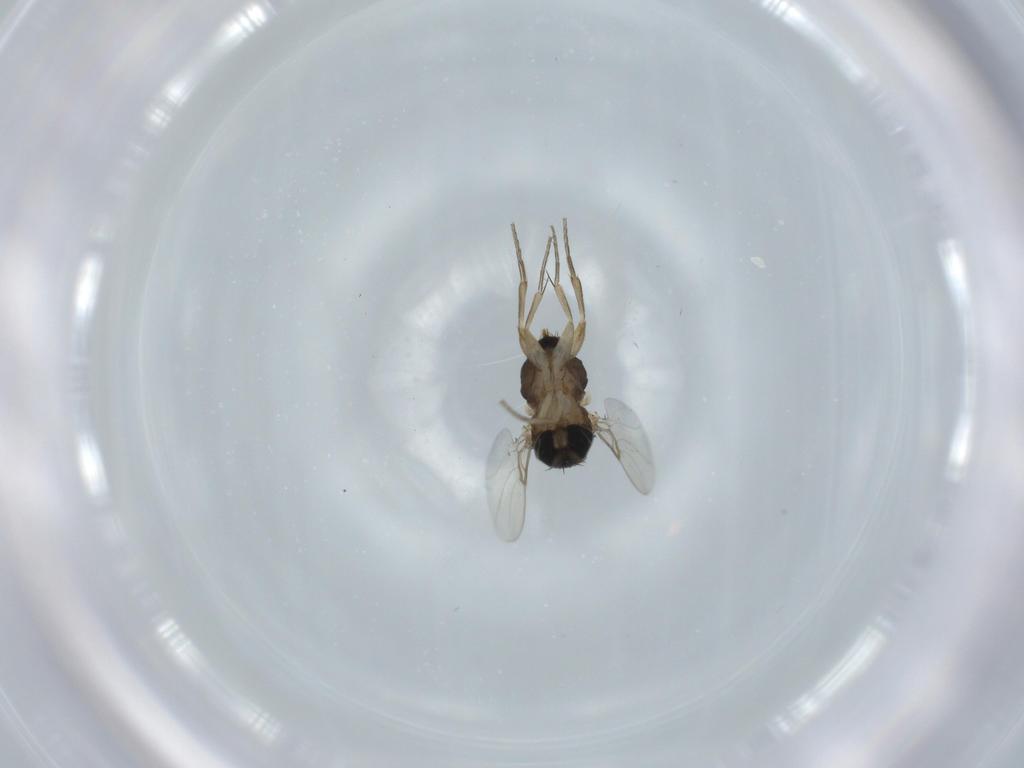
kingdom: Animalia
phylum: Arthropoda
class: Insecta
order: Diptera
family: Phoridae
